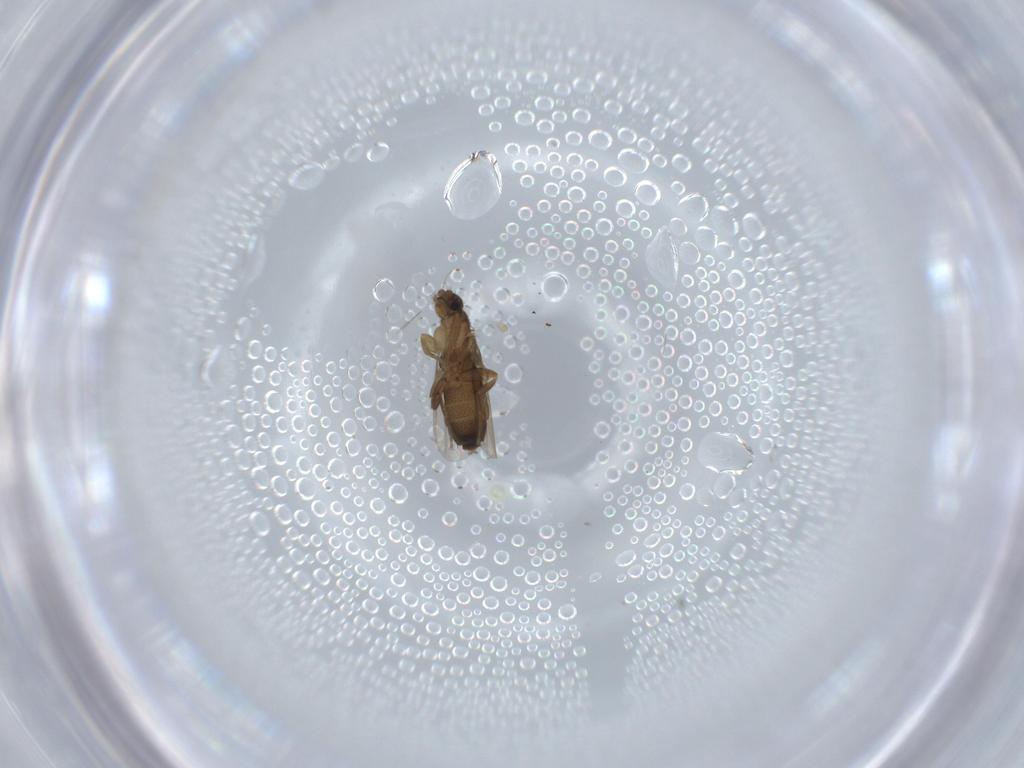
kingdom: Animalia
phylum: Arthropoda
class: Insecta
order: Diptera
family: Phoridae
